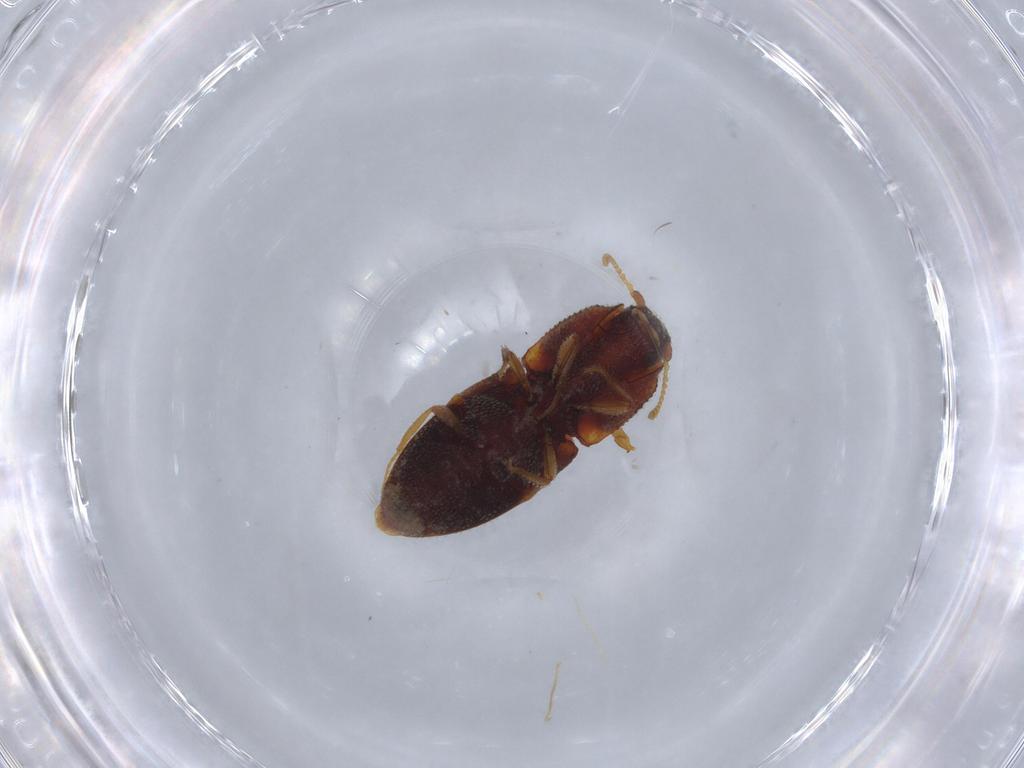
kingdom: Animalia
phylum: Arthropoda
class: Insecta
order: Coleoptera
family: Elateridae
